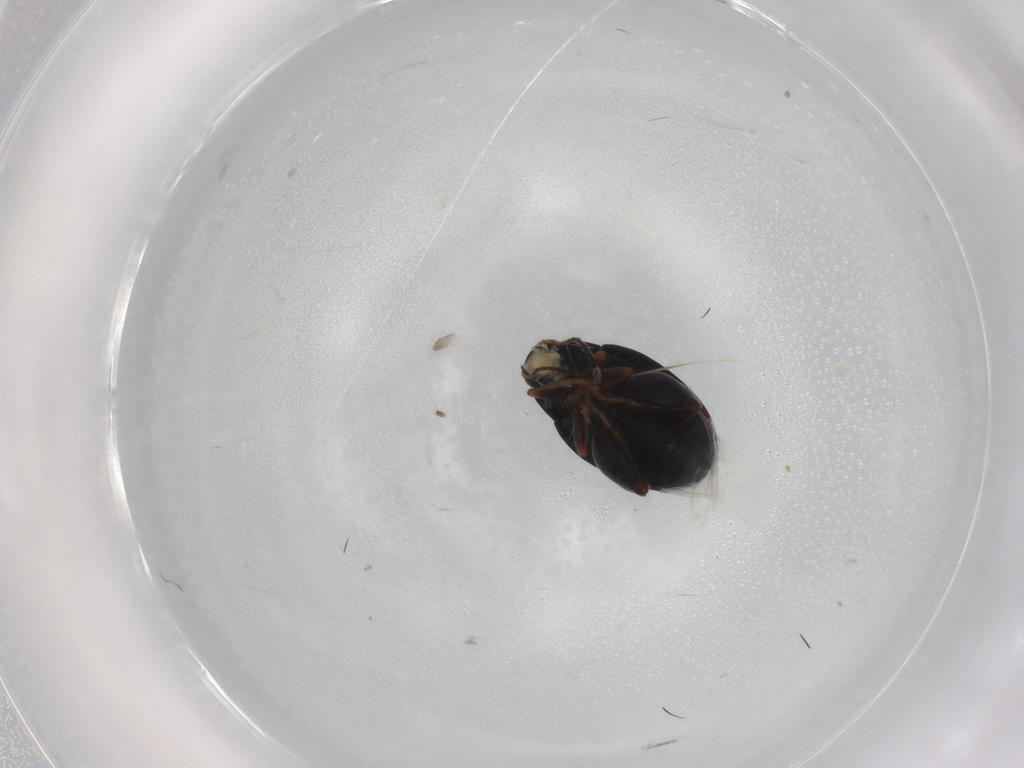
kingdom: Animalia
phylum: Arthropoda
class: Insecta
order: Coleoptera
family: Chrysomelidae
